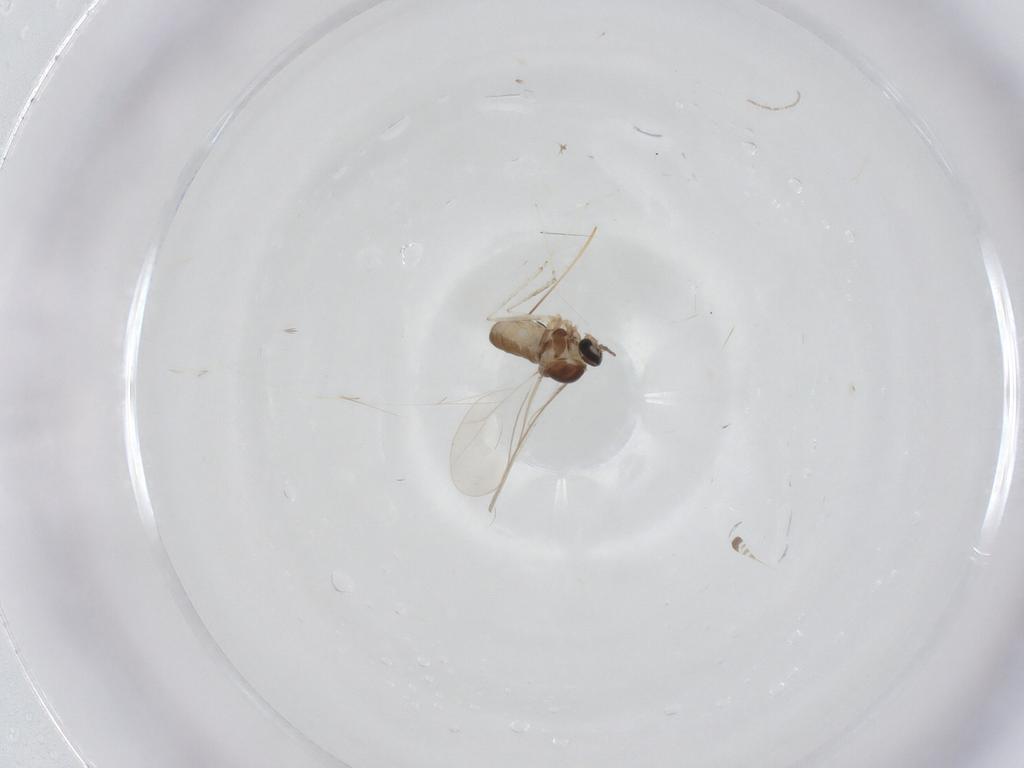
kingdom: Animalia
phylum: Arthropoda
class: Insecta
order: Diptera
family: Cecidomyiidae
